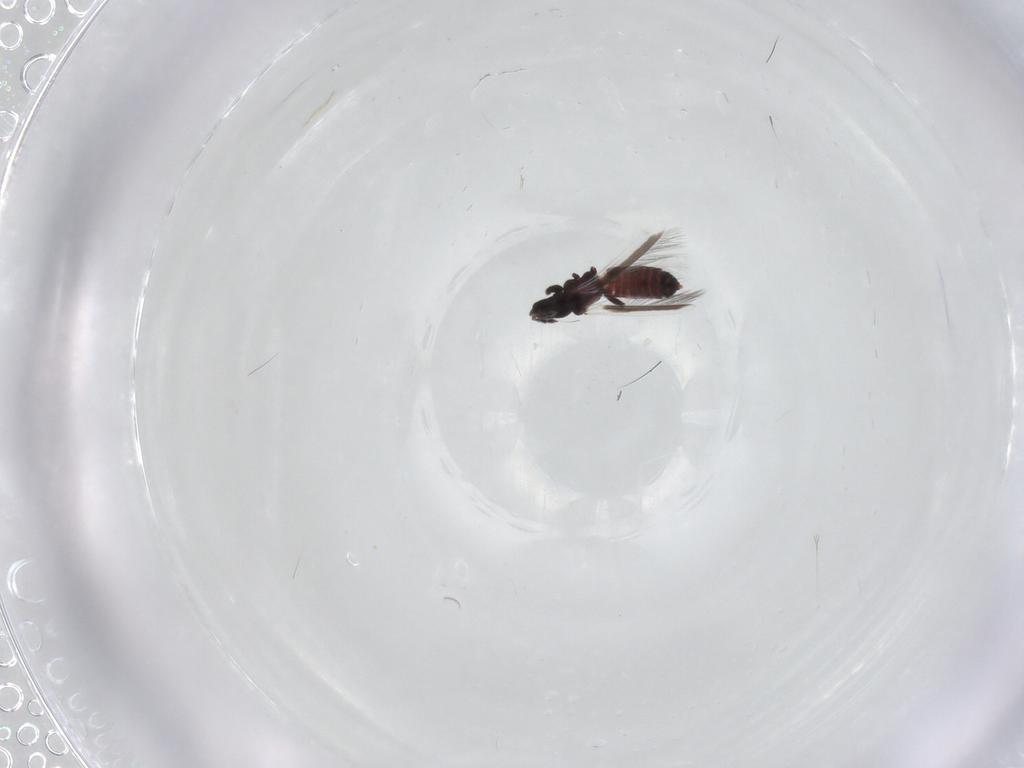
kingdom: Animalia
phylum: Arthropoda
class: Insecta
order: Thysanoptera
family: Aeolothripidae
